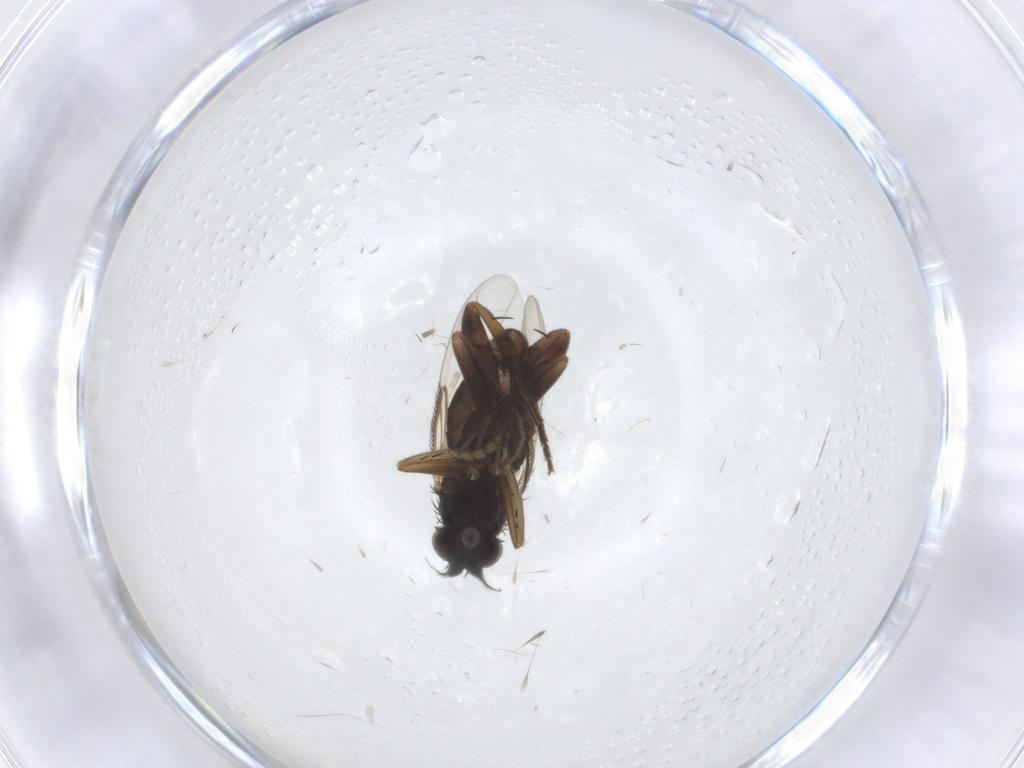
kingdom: Animalia
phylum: Arthropoda
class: Insecta
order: Diptera
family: Phoridae
